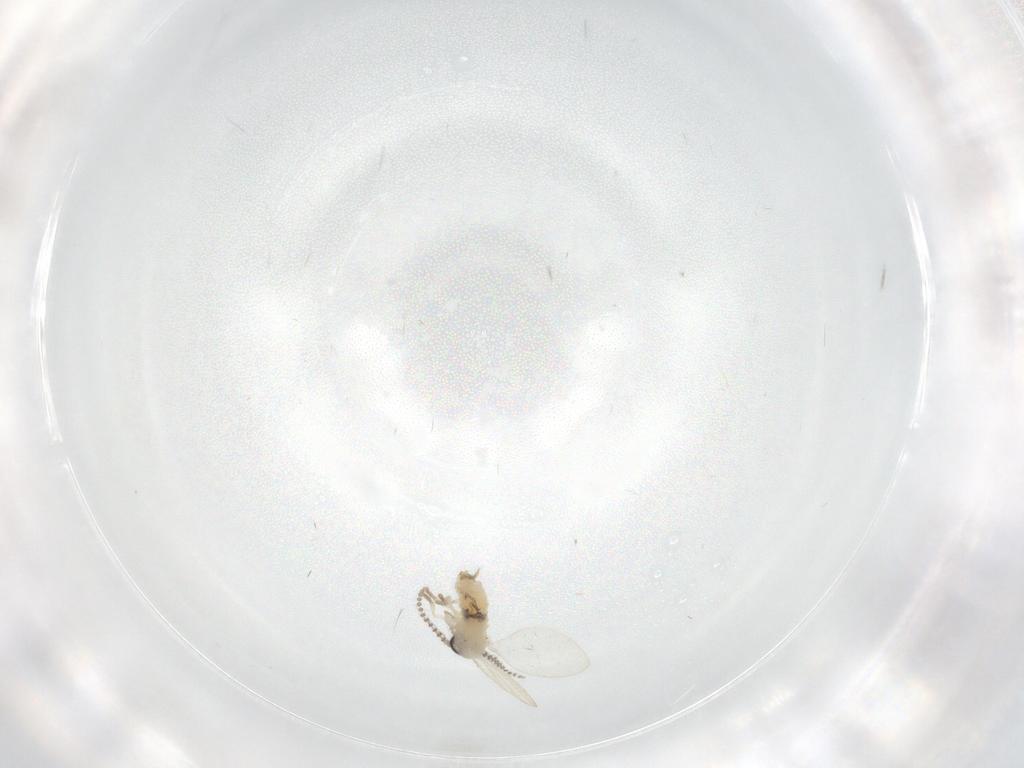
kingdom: Animalia
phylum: Arthropoda
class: Insecta
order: Diptera
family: Psychodidae
